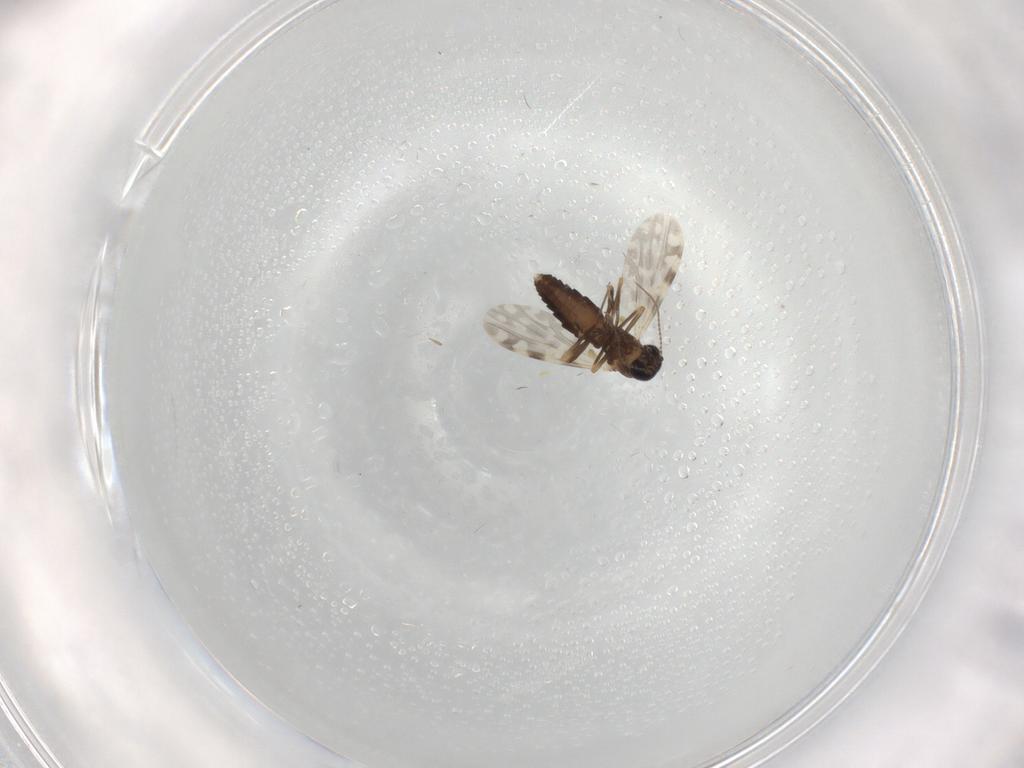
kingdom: Animalia
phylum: Arthropoda
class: Insecta
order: Diptera
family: Ceratopogonidae
